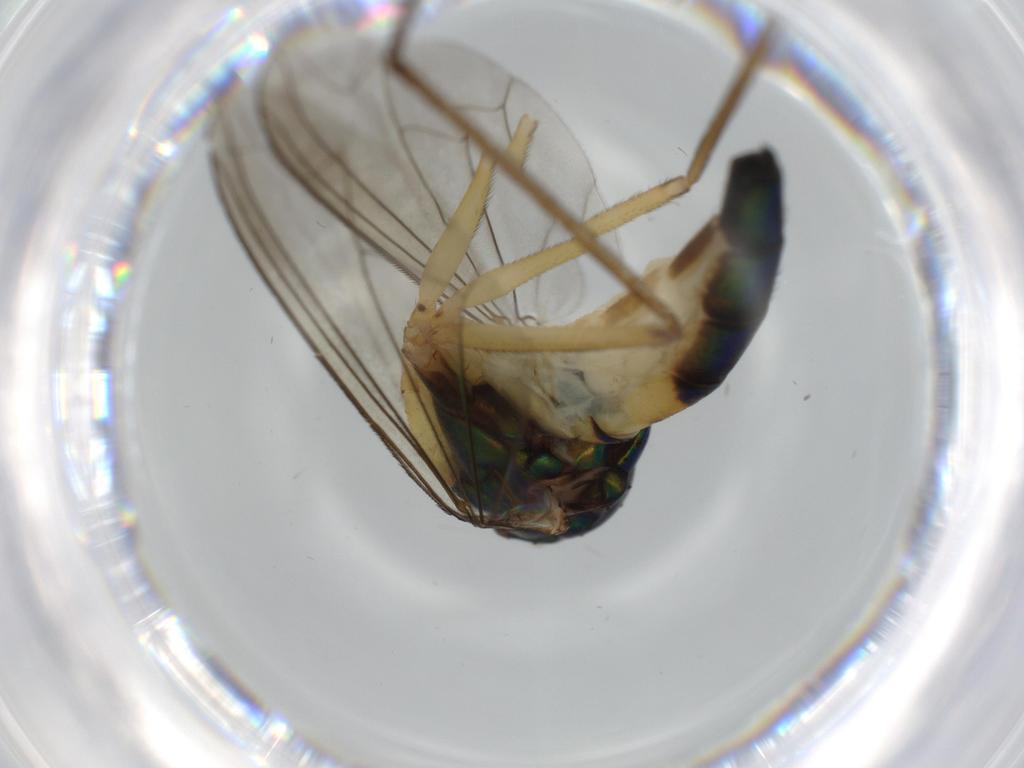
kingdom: Animalia
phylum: Arthropoda
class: Insecta
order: Diptera
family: Dolichopodidae
